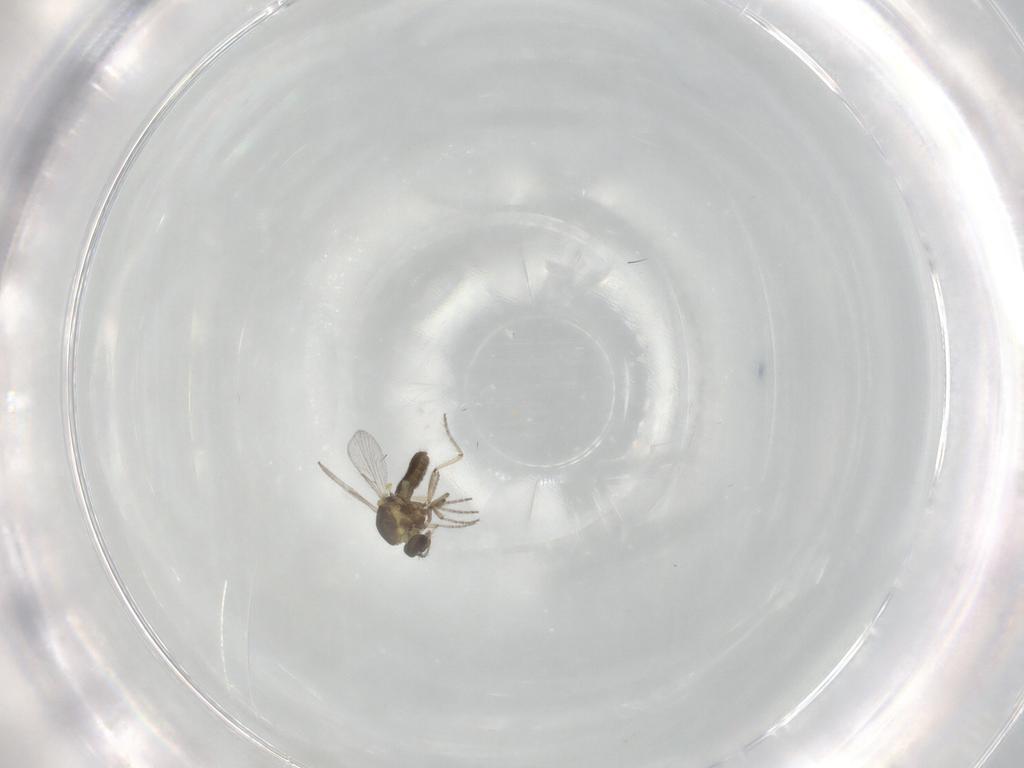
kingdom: Animalia
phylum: Arthropoda
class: Insecta
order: Diptera
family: Ceratopogonidae
